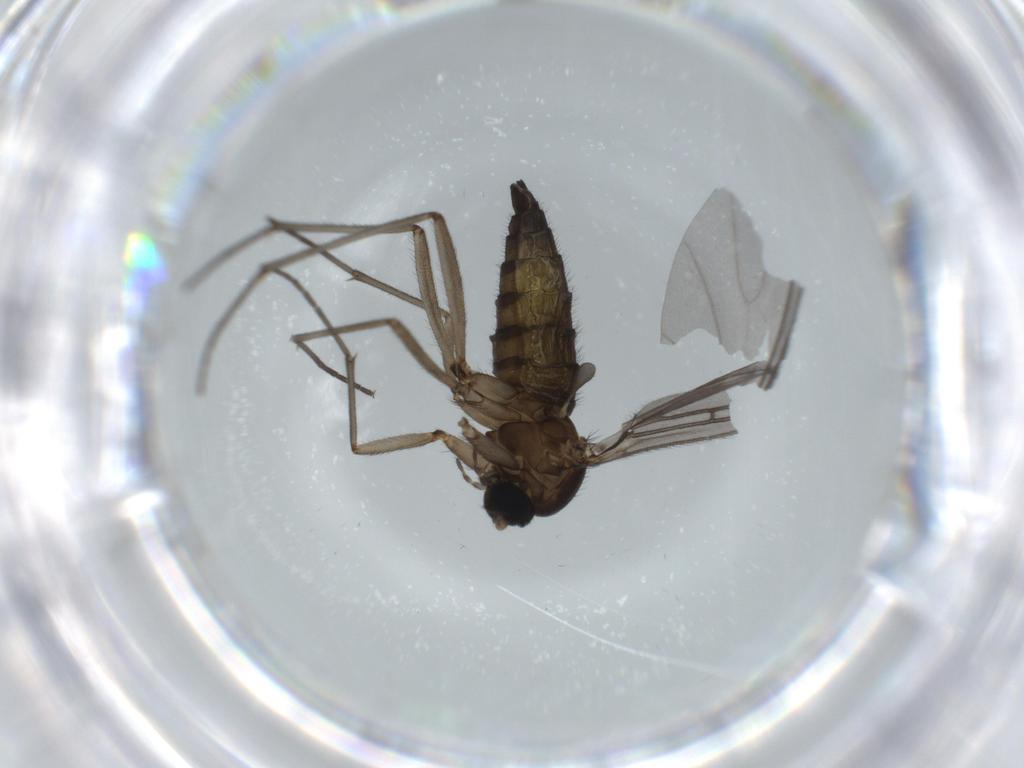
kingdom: Animalia
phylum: Arthropoda
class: Insecta
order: Diptera
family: Sciaridae
